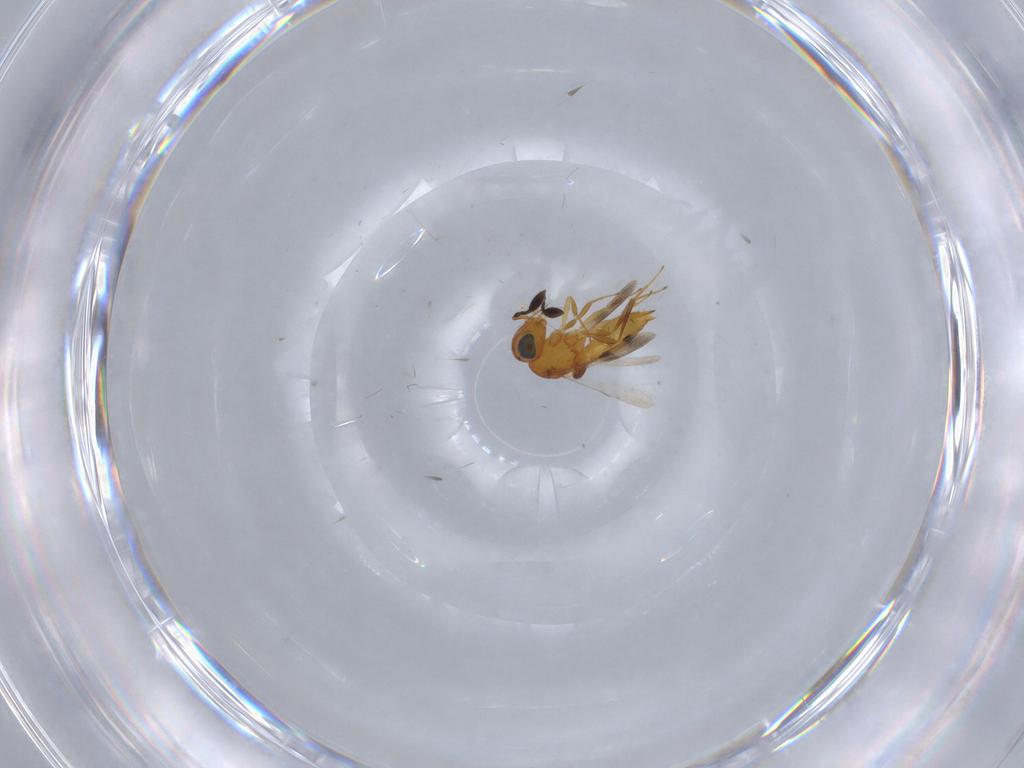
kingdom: Animalia
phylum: Arthropoda
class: Insecta
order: Hymenoptera
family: Scelionidae
